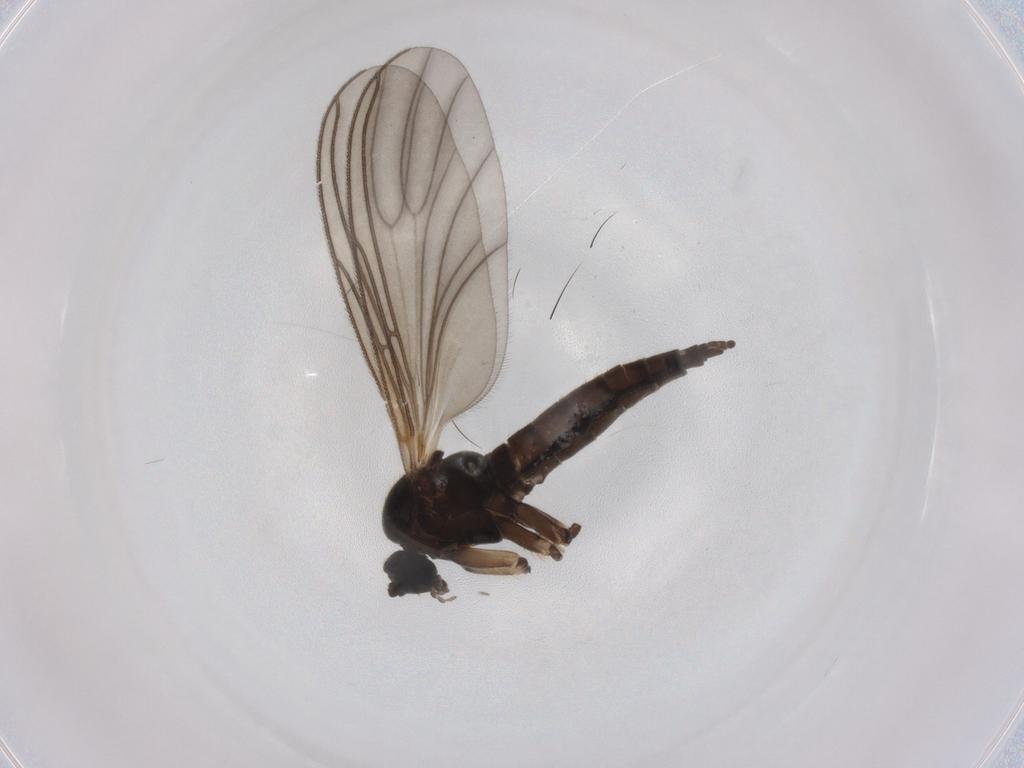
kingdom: Animalia
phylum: Arthropoda
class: Insecta
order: Diptera
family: Sciaridae
